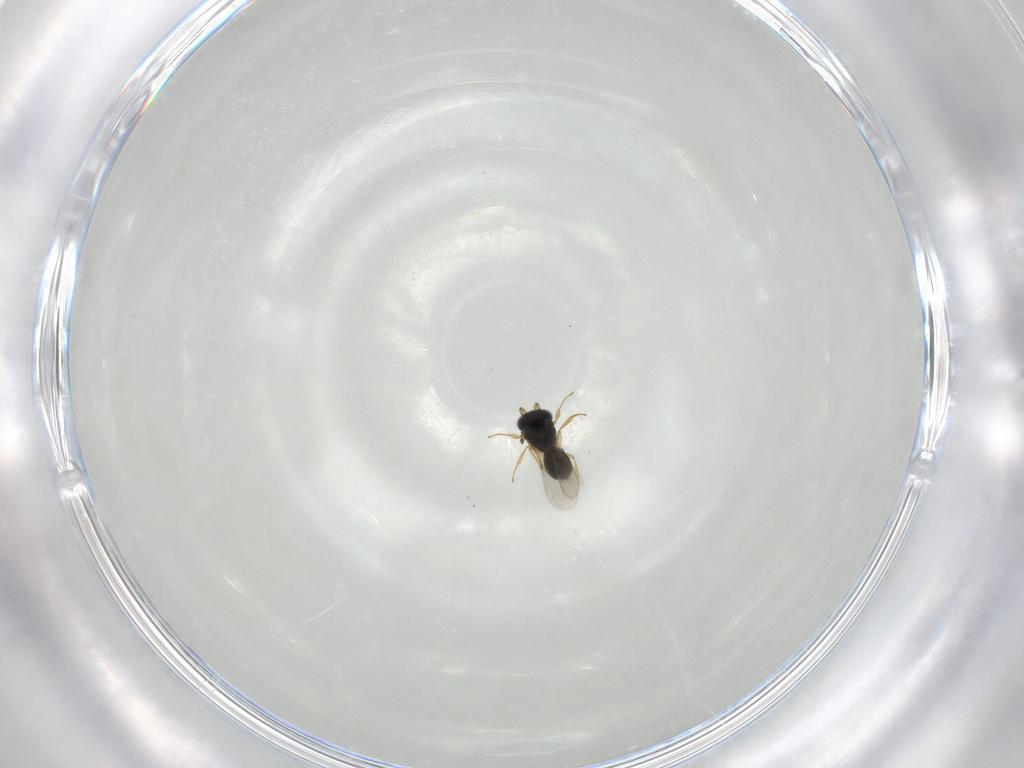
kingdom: Animalia
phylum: Arthropoda
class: Insecta
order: Hymenoptera
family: Scelionidae
